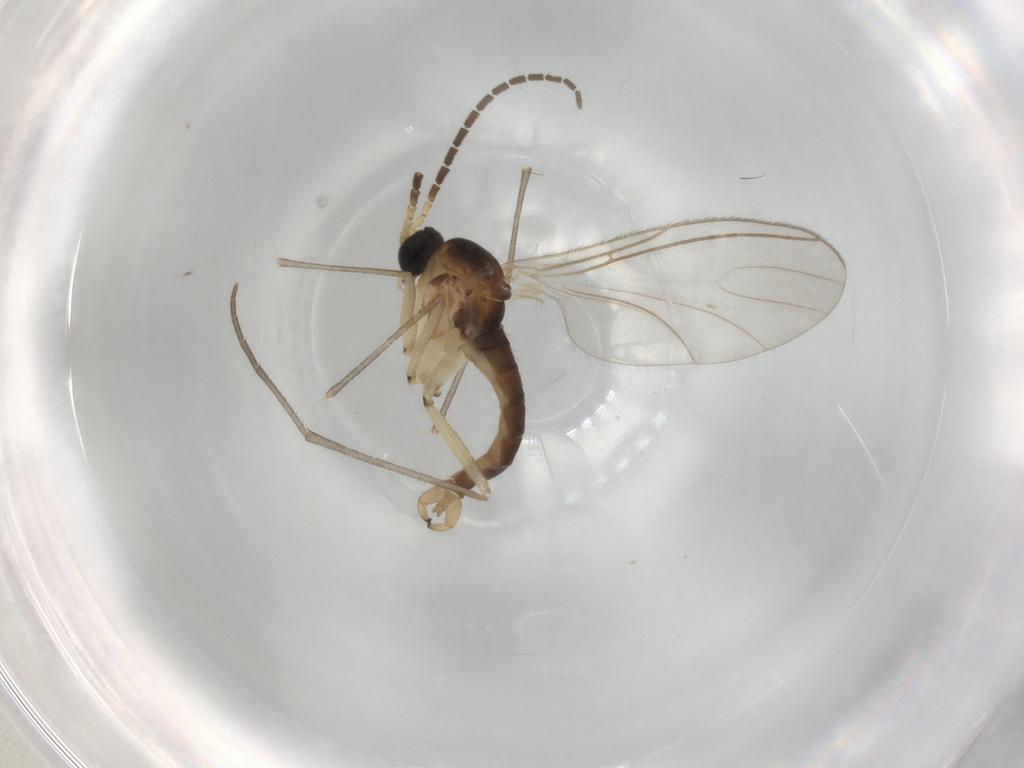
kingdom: Animalia
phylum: Arthropoda
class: Insecta
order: Diptera
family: Sciaridae
